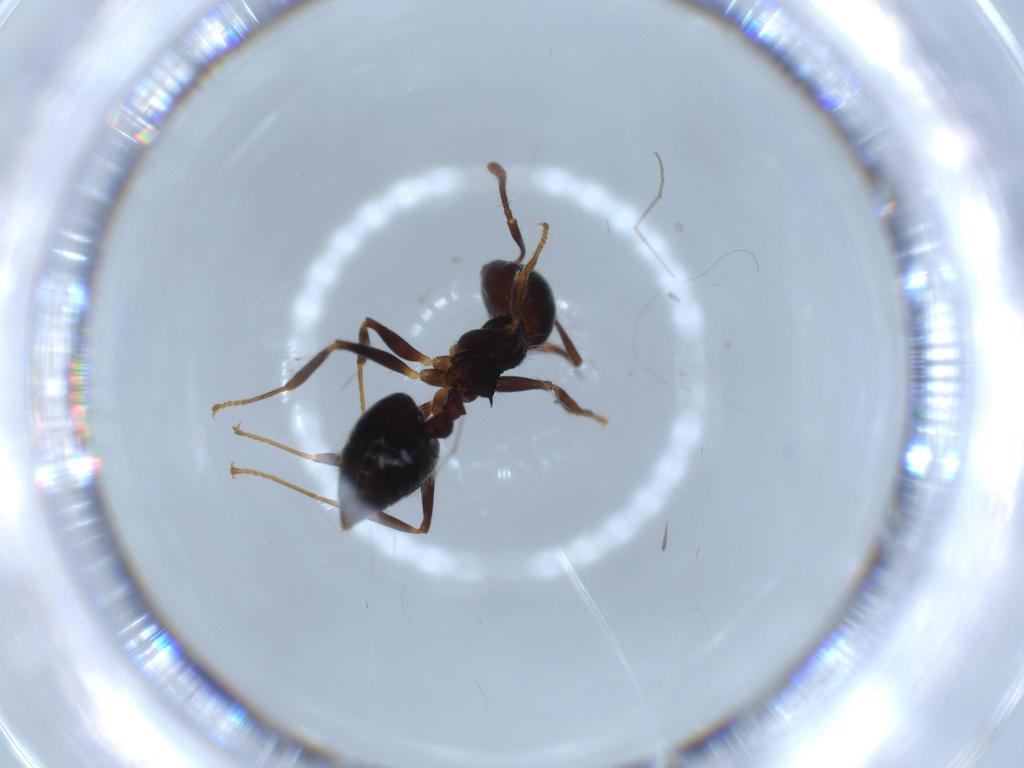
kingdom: Animalia
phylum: Arthropoda
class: Insecta
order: Hymenoptera
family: Formicidae
